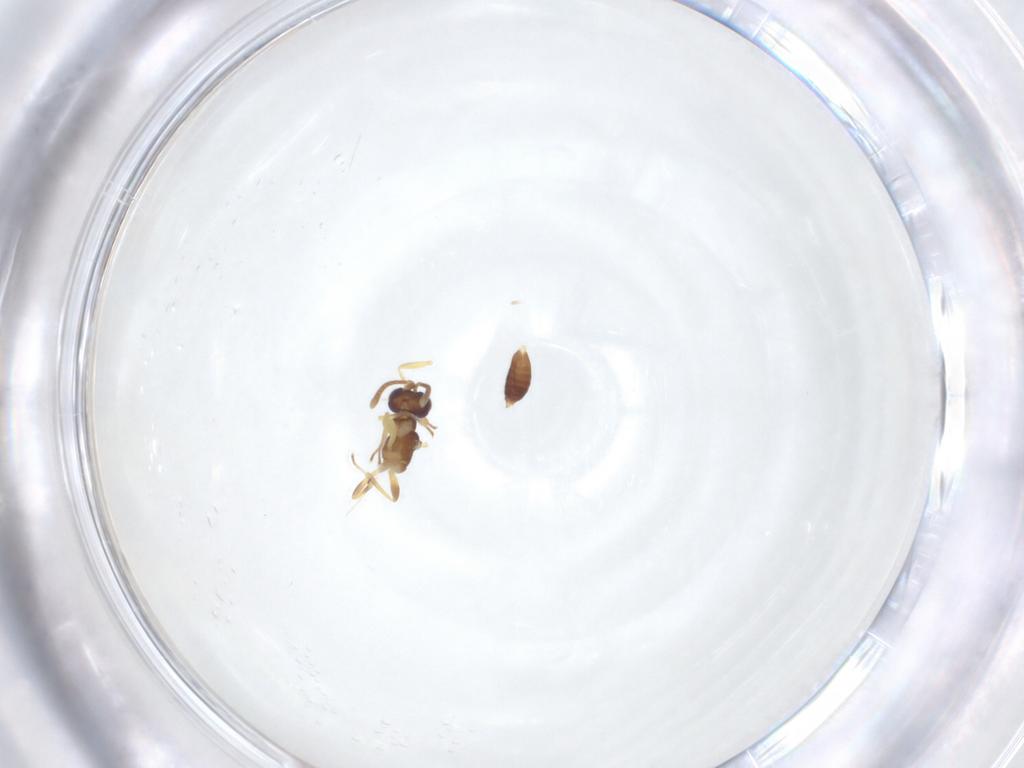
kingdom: Animalia
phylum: Arthropoda
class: Insecta
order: Hymenoptera
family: Eupelmidae
